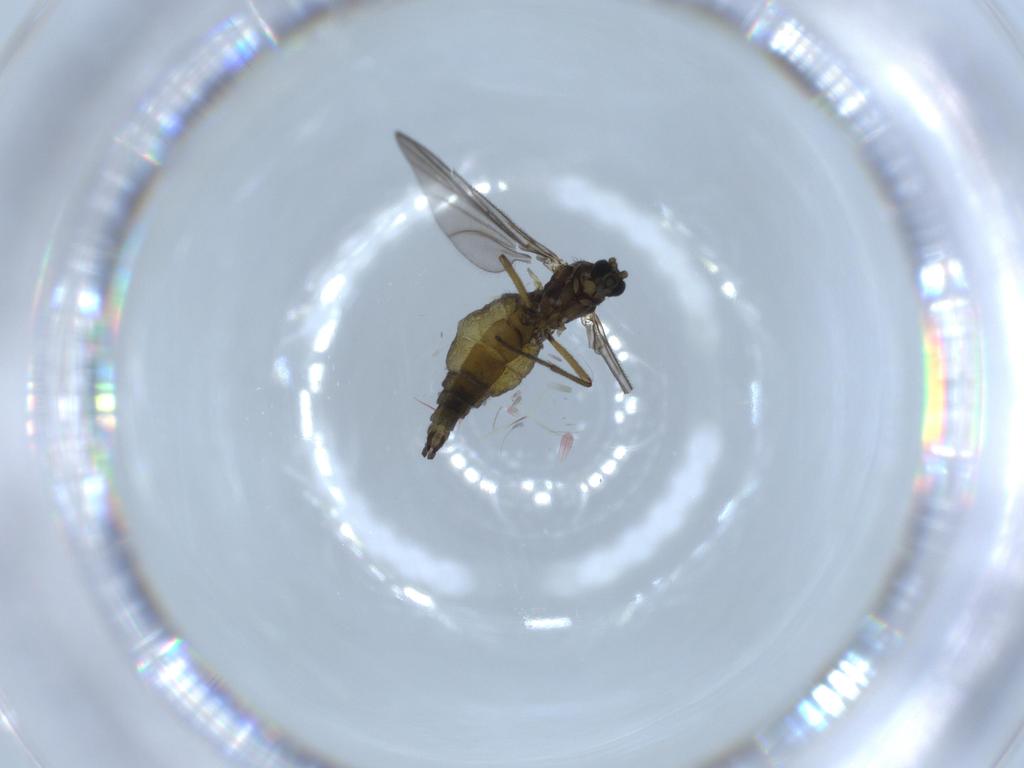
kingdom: Animalia
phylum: Arthropoda
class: Insecta
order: Diptera
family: Sciaridae
